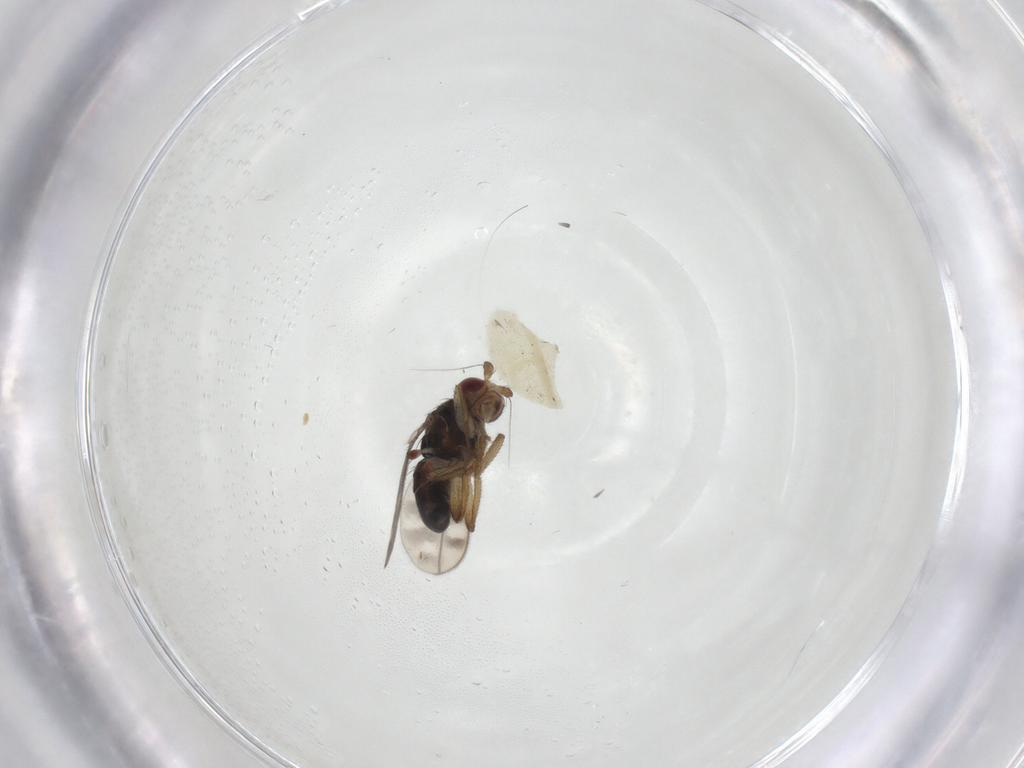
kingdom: Animalia
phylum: Arthropoda
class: Insecta
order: Diptera
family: Sphaeroceridae
